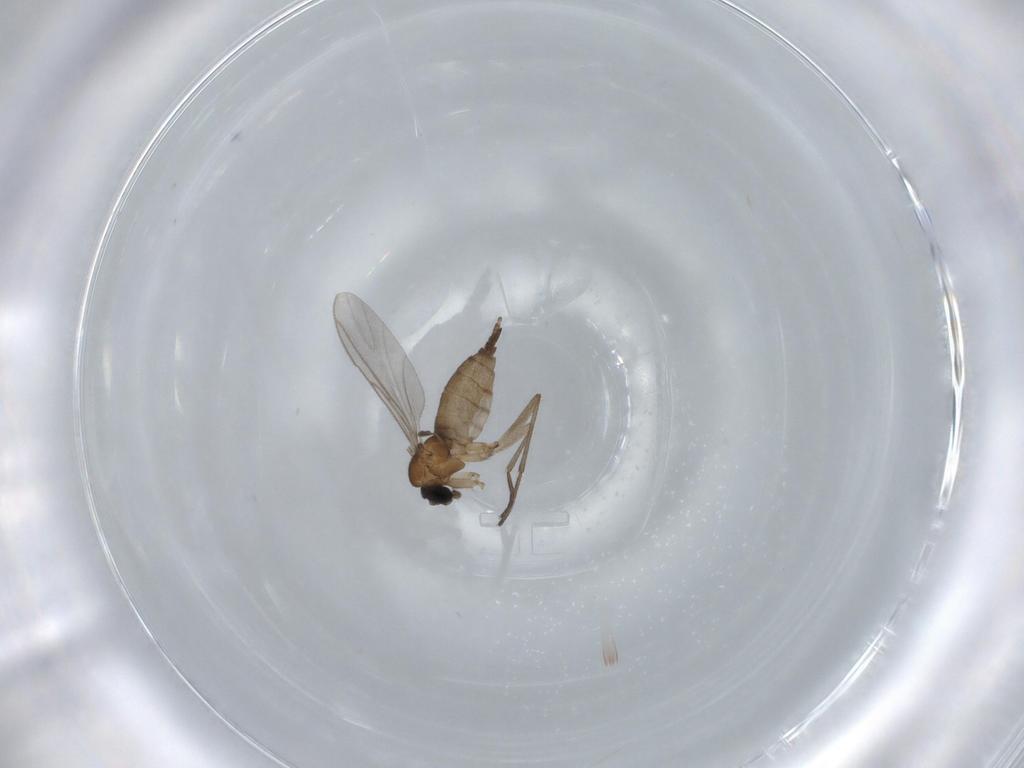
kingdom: Animalia
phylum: Arthropoda
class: Insecta
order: Diptera
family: Sciaridae
